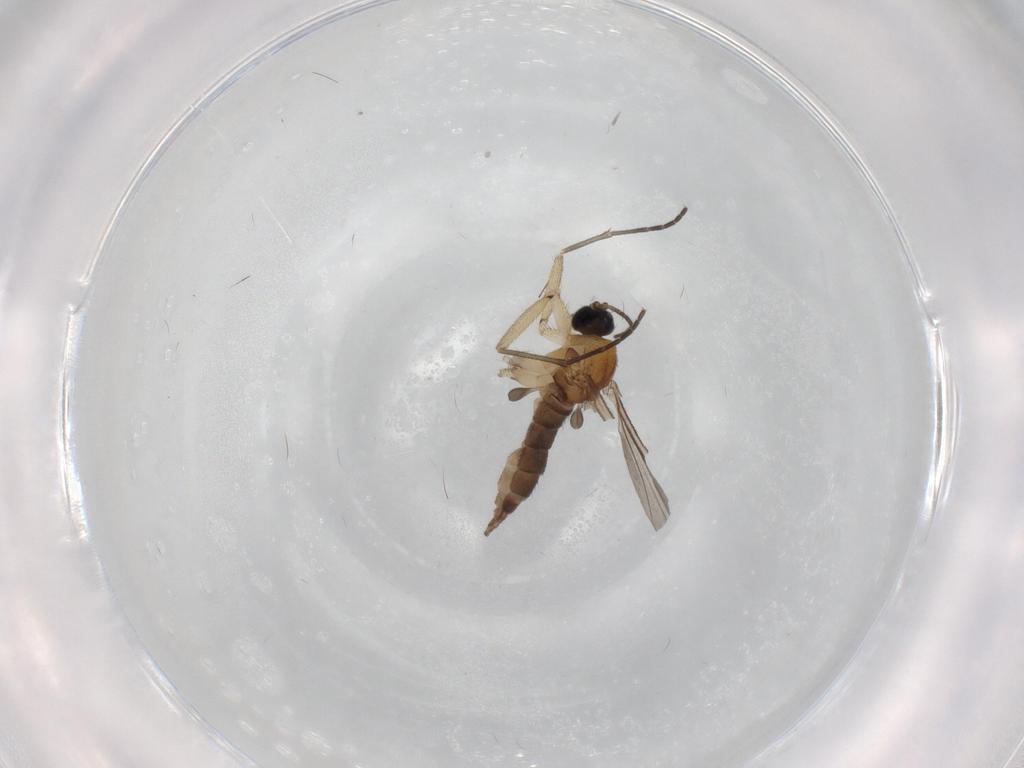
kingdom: Animalia
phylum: Arthropoda
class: Insecta
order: Diptera
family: Sciaridae
